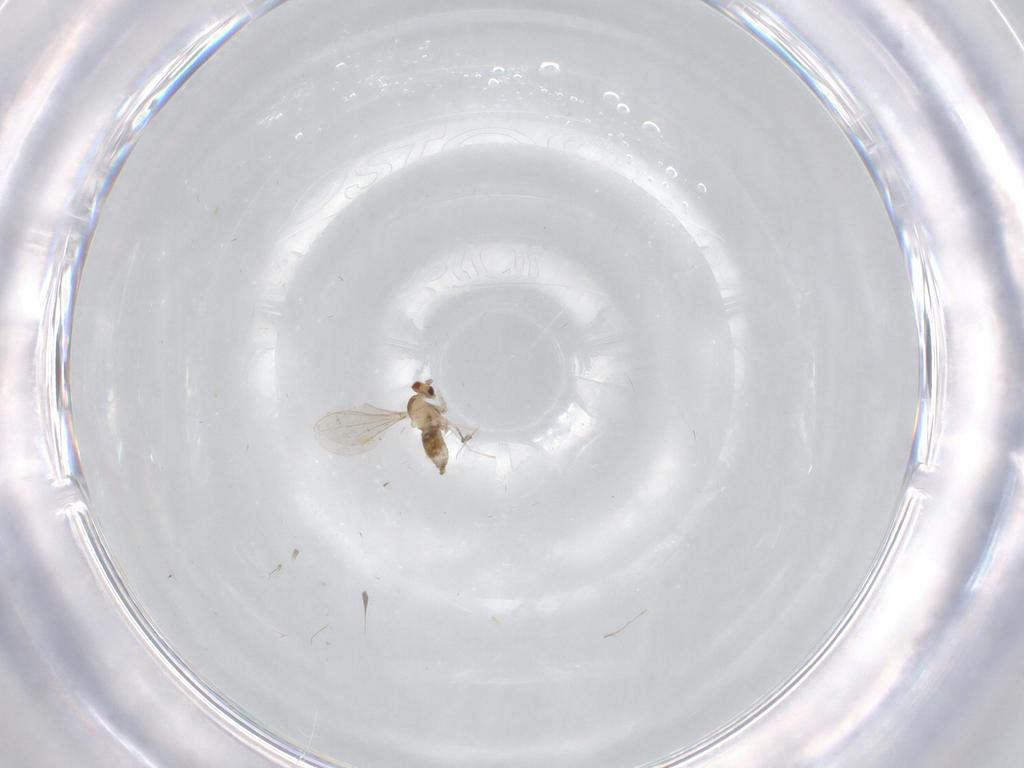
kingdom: Animalia
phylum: Arthropoda
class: Insecta
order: Diptera
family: Cecidomyiidae
